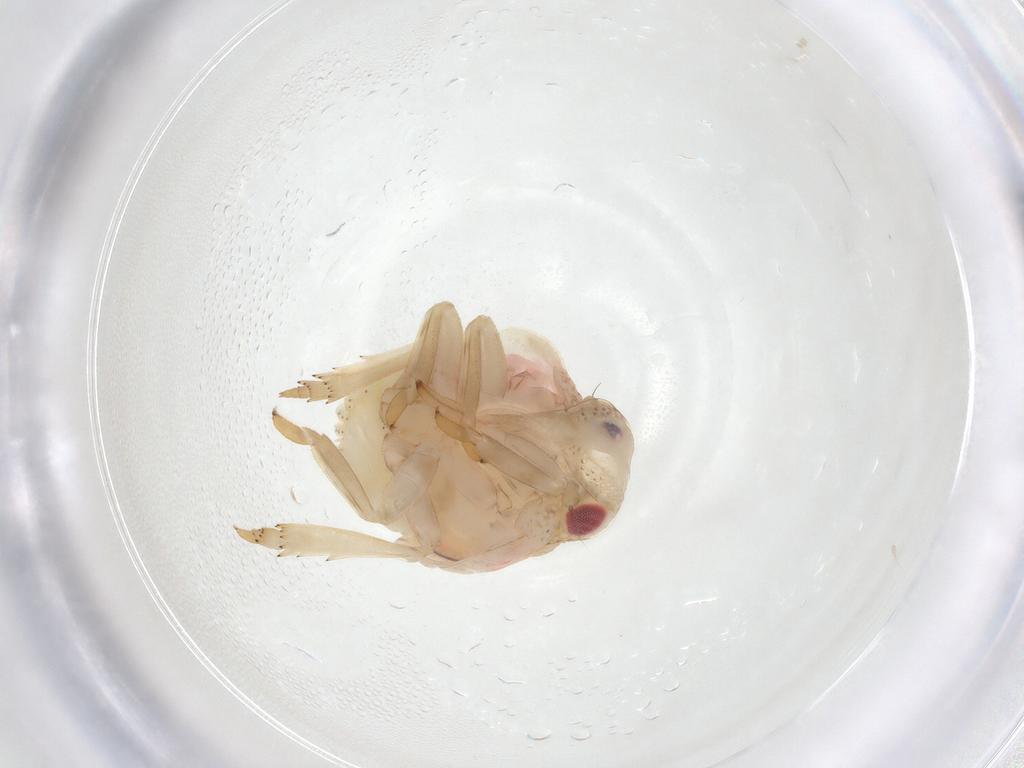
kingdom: Animalia
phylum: Arthropoda
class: Insecta
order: Hemiptera
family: Acanaloniidae
